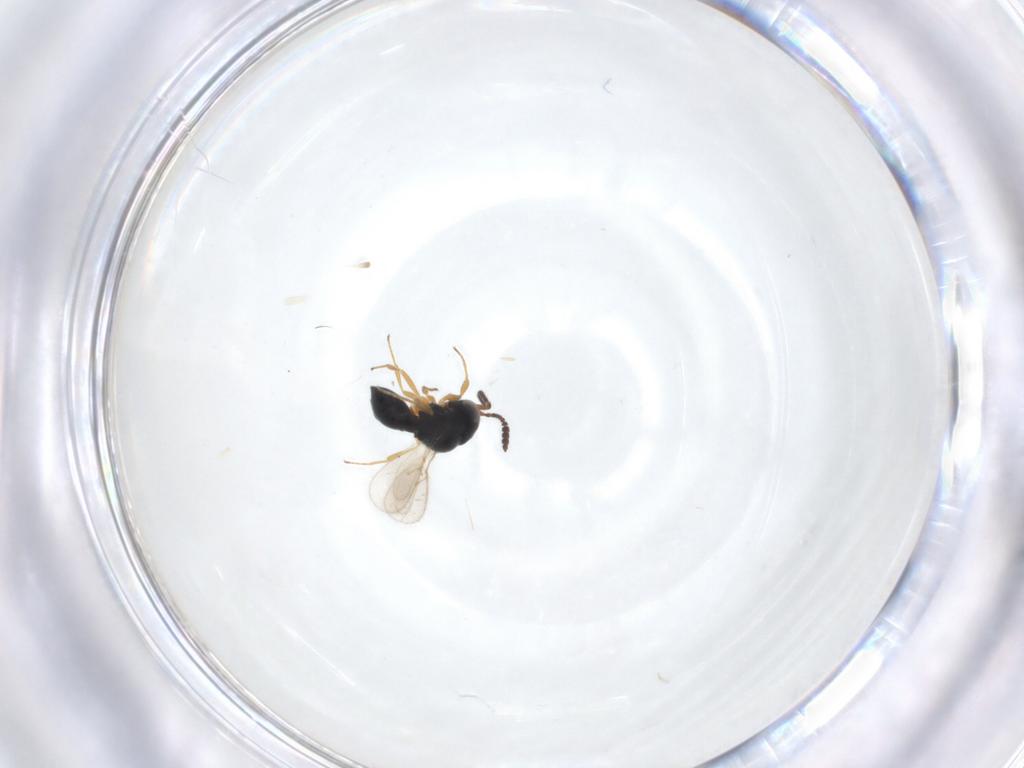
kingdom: Animalia
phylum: Arthropoda
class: Insecta
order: Hymenoptera
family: Scelionidae
